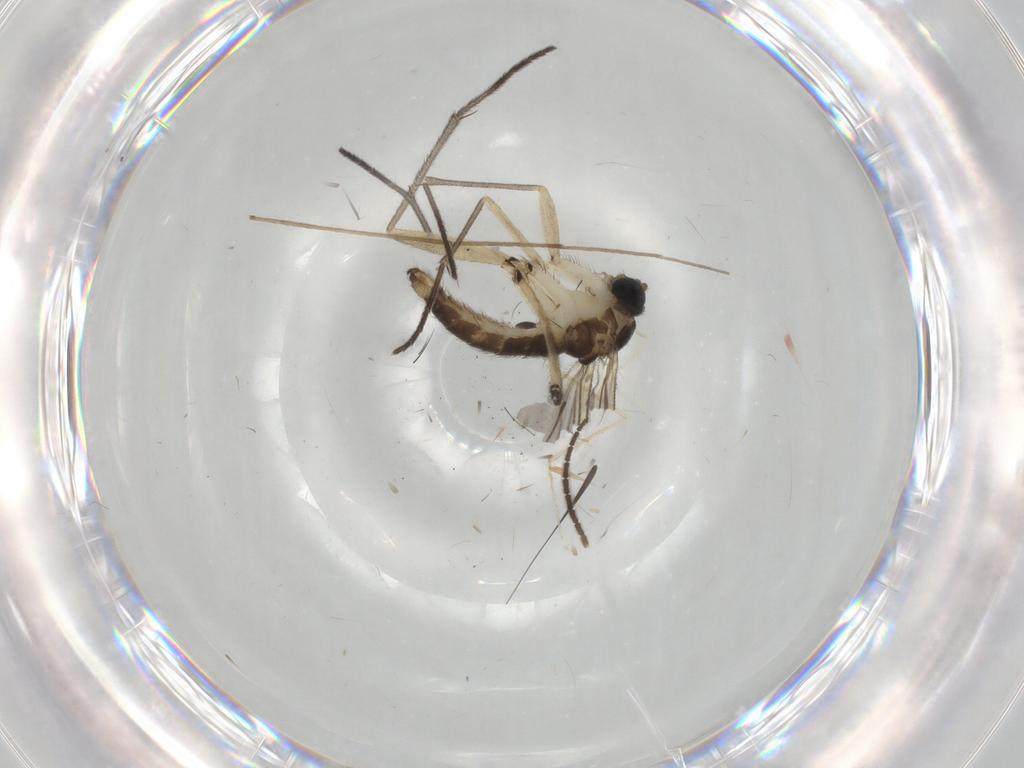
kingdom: Animalia
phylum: Arthropoda
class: Insecta
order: Diptera
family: Sciaridae
